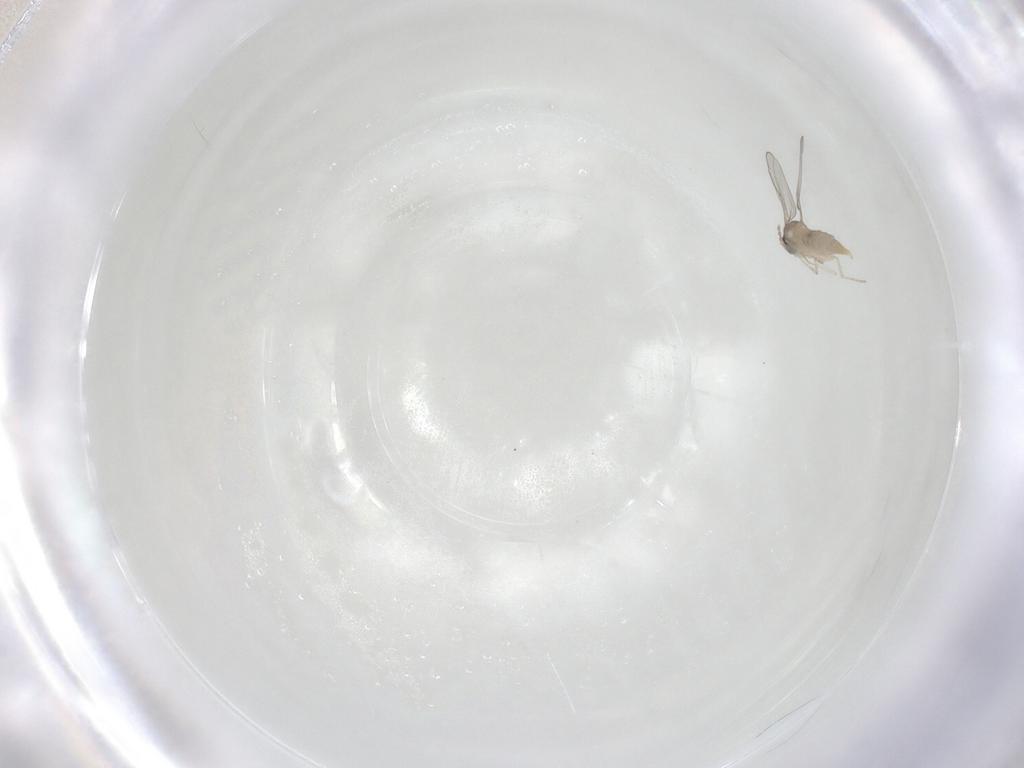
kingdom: Animalia
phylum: Arthropoda
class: Insecta
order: Diptera
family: Cecidomyiidae
